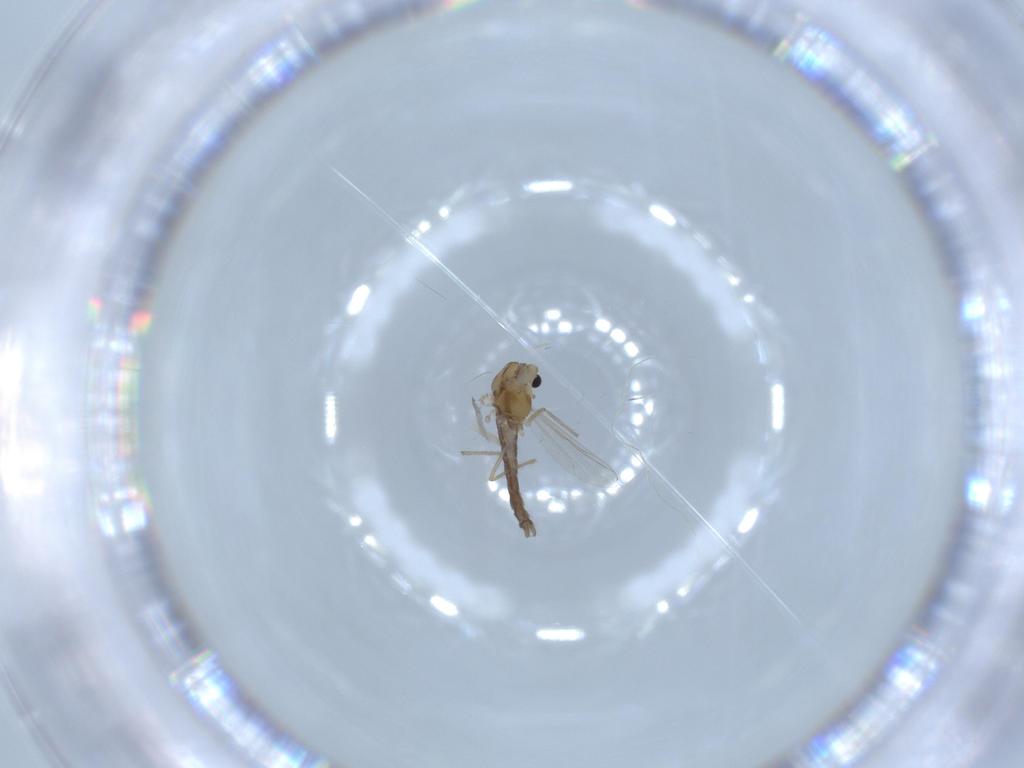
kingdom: Animalia
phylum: Arthropoda
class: Insecta
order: Diptera
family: Chironomidae
